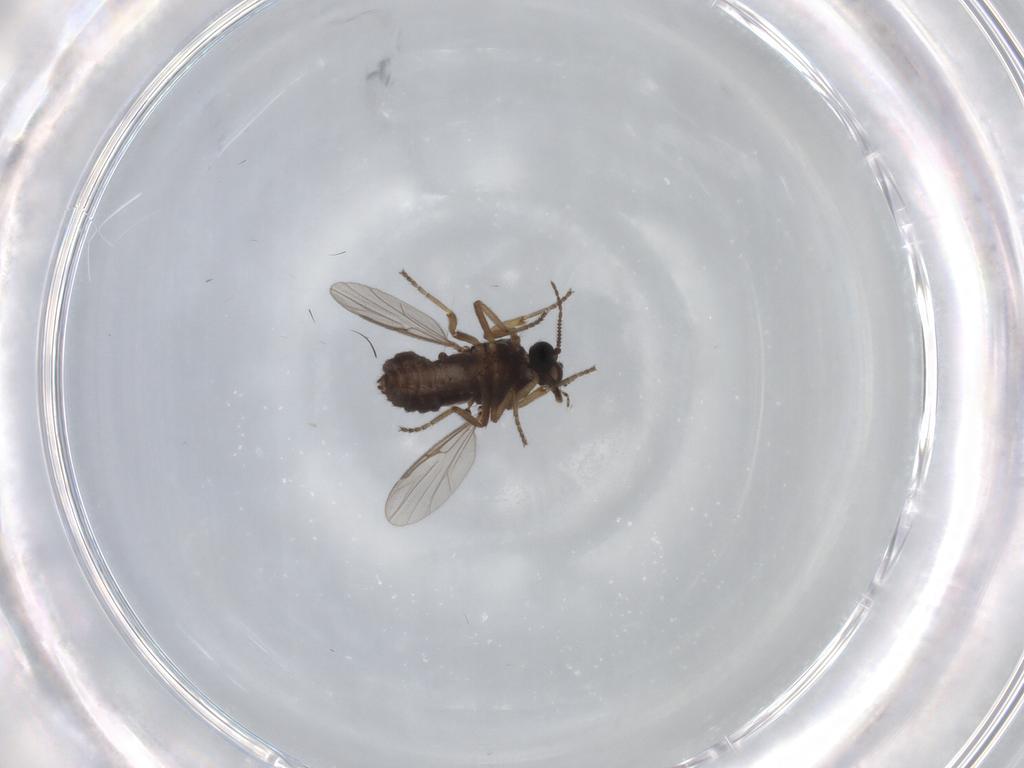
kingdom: Animalia
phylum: Arthropoda
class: Insecta
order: Diptera
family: Ceratopogonidae
